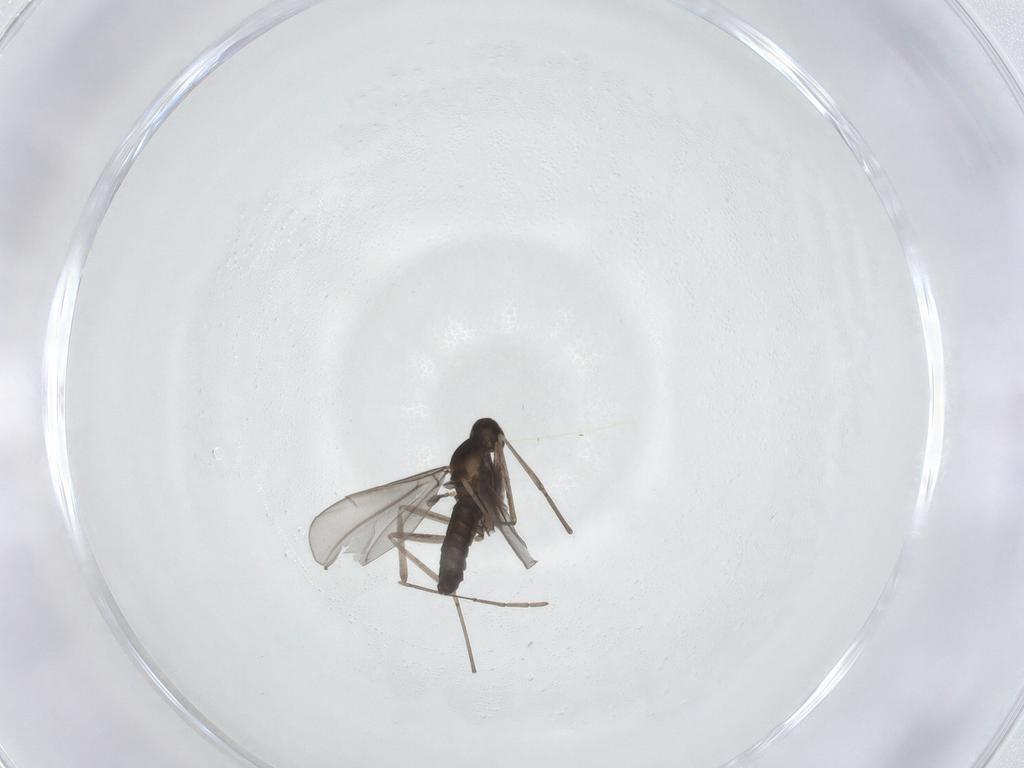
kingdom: Animalia
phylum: Arthropoda
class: Insecta
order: Diptera
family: Cecidomyiidae
